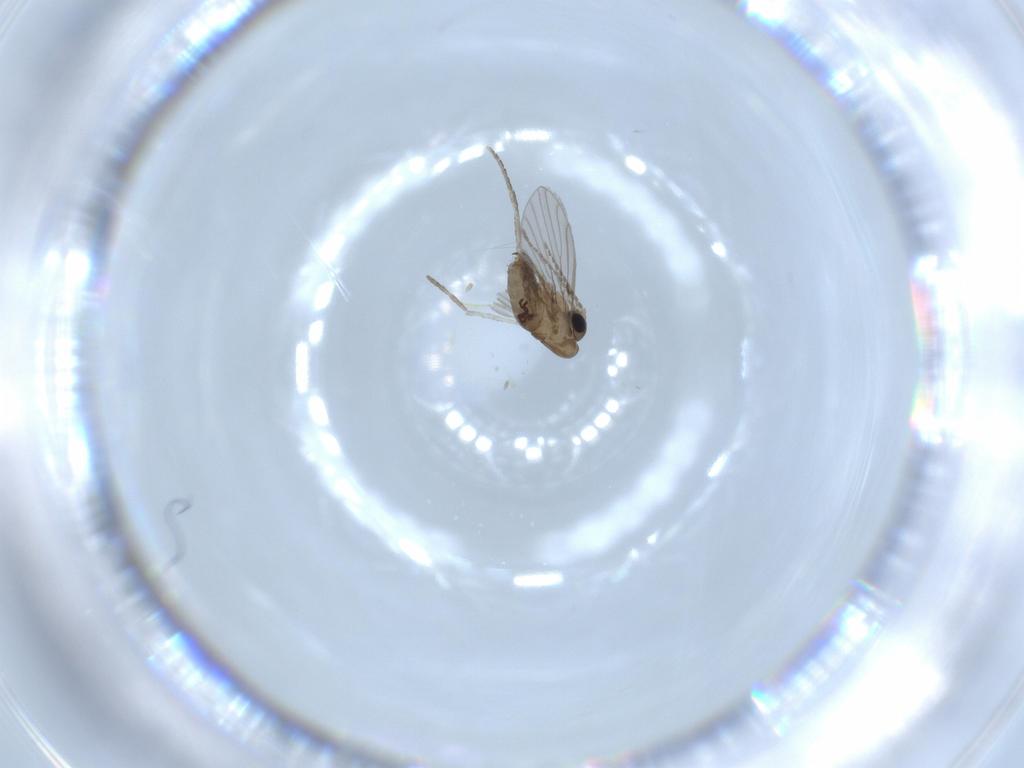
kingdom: Animalia
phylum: Arthropoda
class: Insecta
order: Diptera
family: Psychodidae
